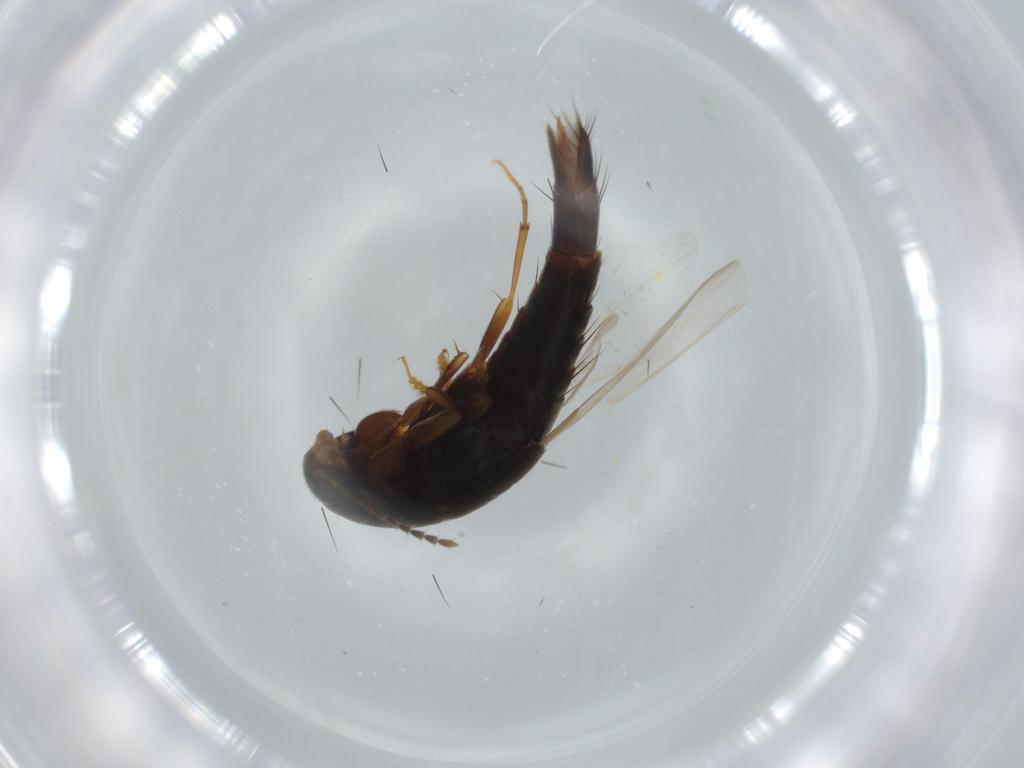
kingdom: Animalia
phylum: Arthropoda
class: Insecta
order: Coleoptera
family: Staphylinidae
